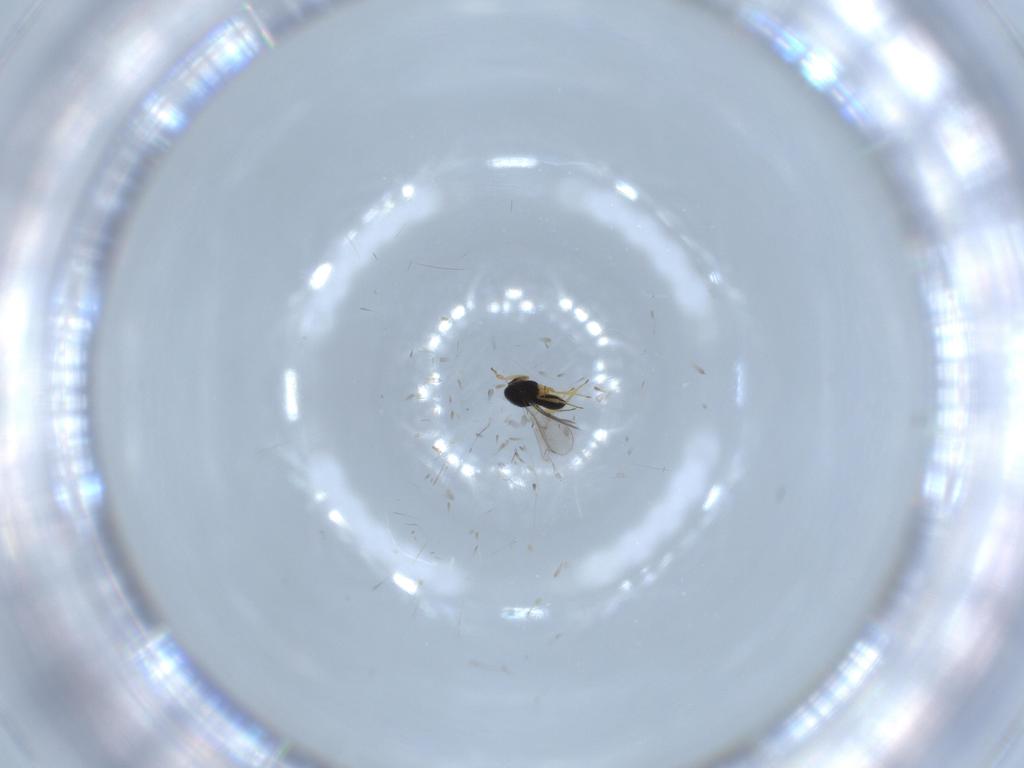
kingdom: Animalia
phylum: Arthropoda
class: Insecta
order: Hymenoptera
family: Scelionidae
